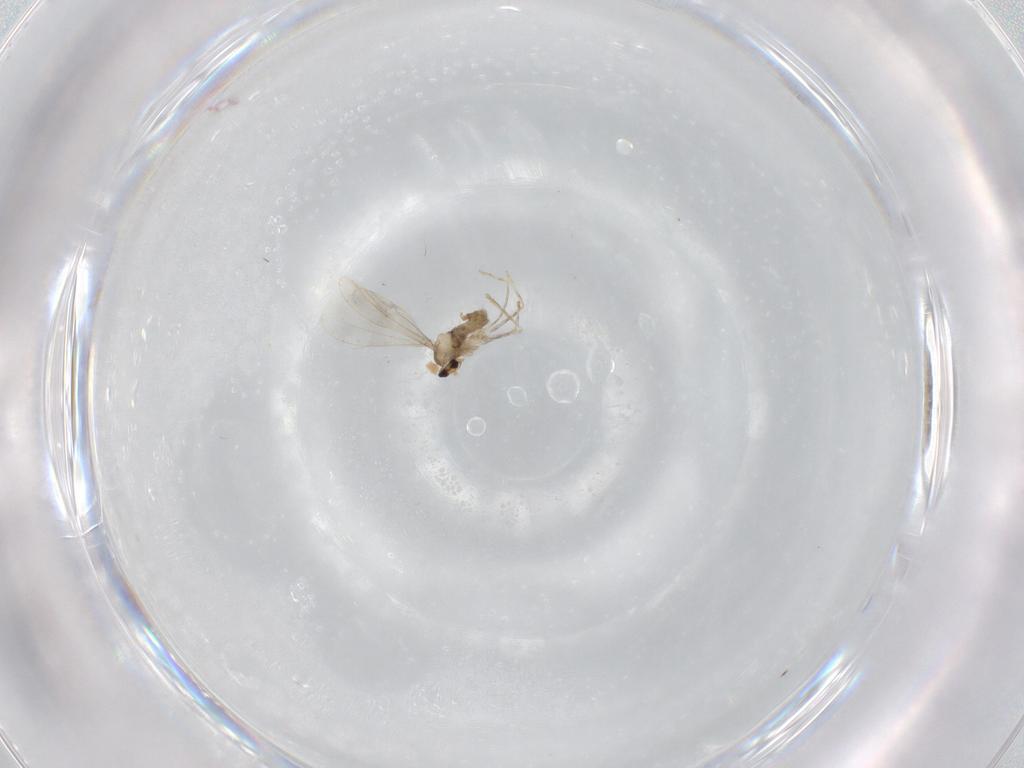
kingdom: Animalia
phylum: Arthropoda
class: Insecta
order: Diptera
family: Cecidomyiidae
